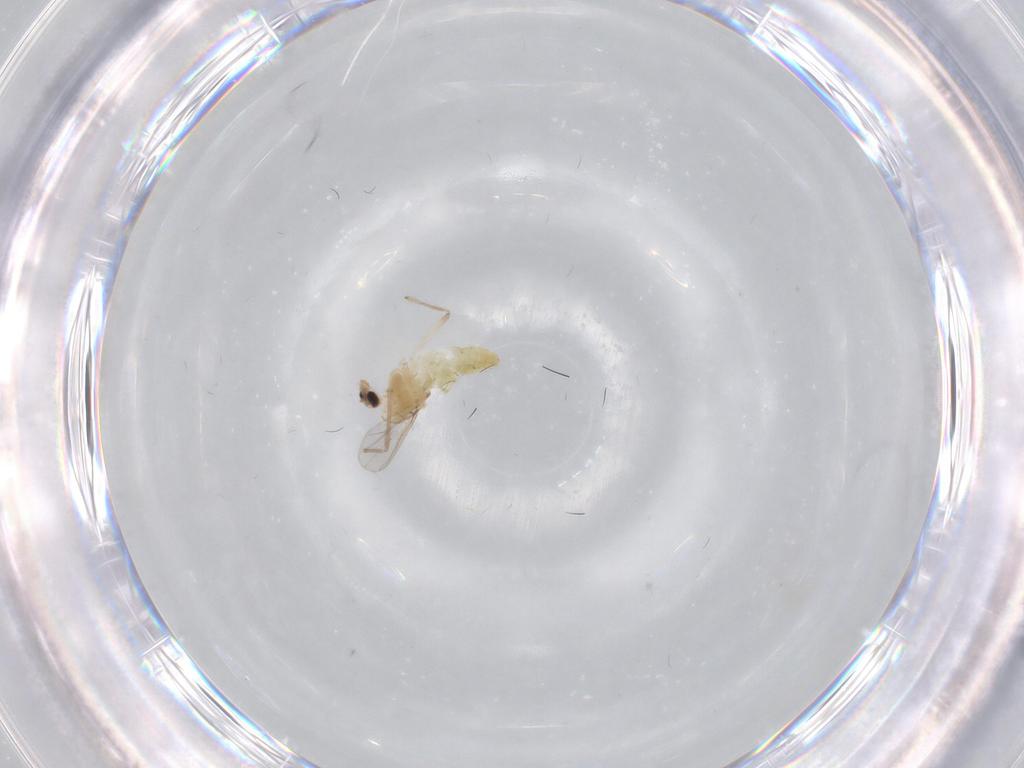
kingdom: Animalia
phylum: Arthropoda
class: Insecta
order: Diptera
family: Chironomidae
